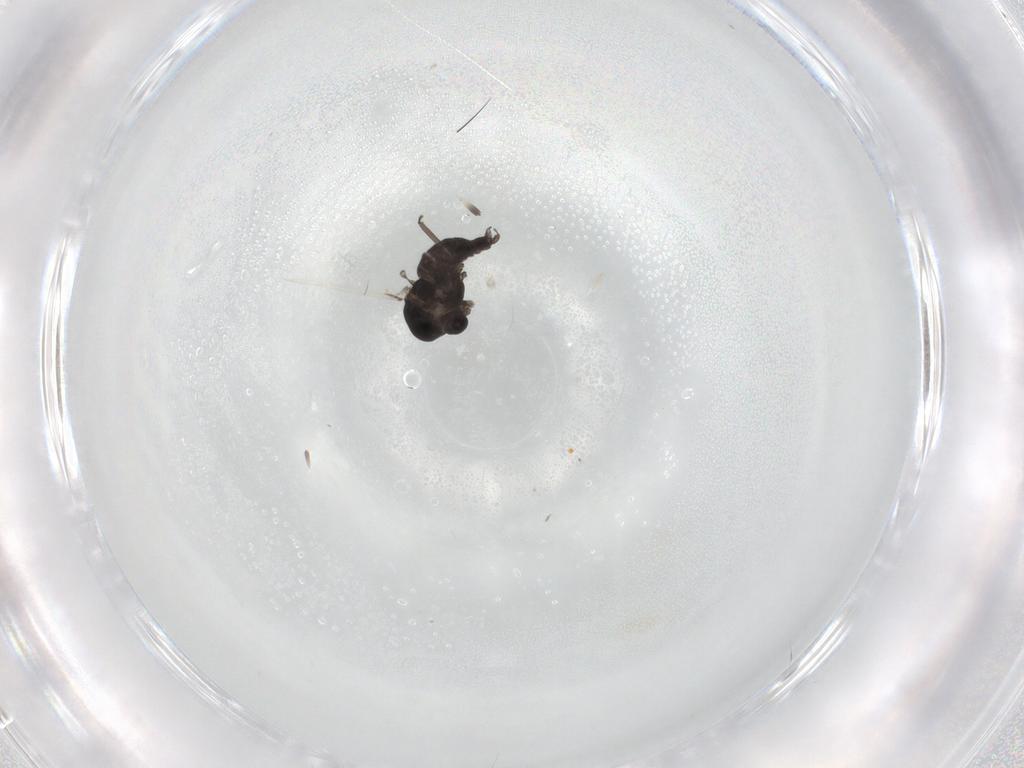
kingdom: Animalia
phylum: Arthropoda
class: Insecta
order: Diptera
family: Chironomidae
